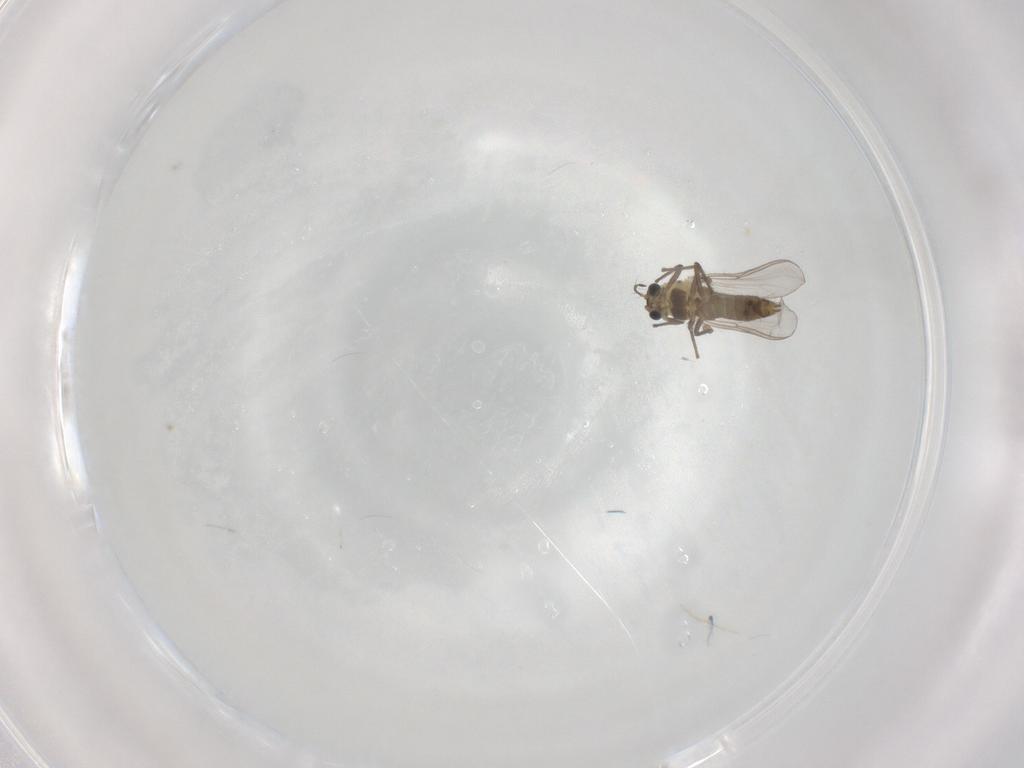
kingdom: Animalia
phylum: Arthropoda
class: Insecta
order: Diptera
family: Chironomidae
